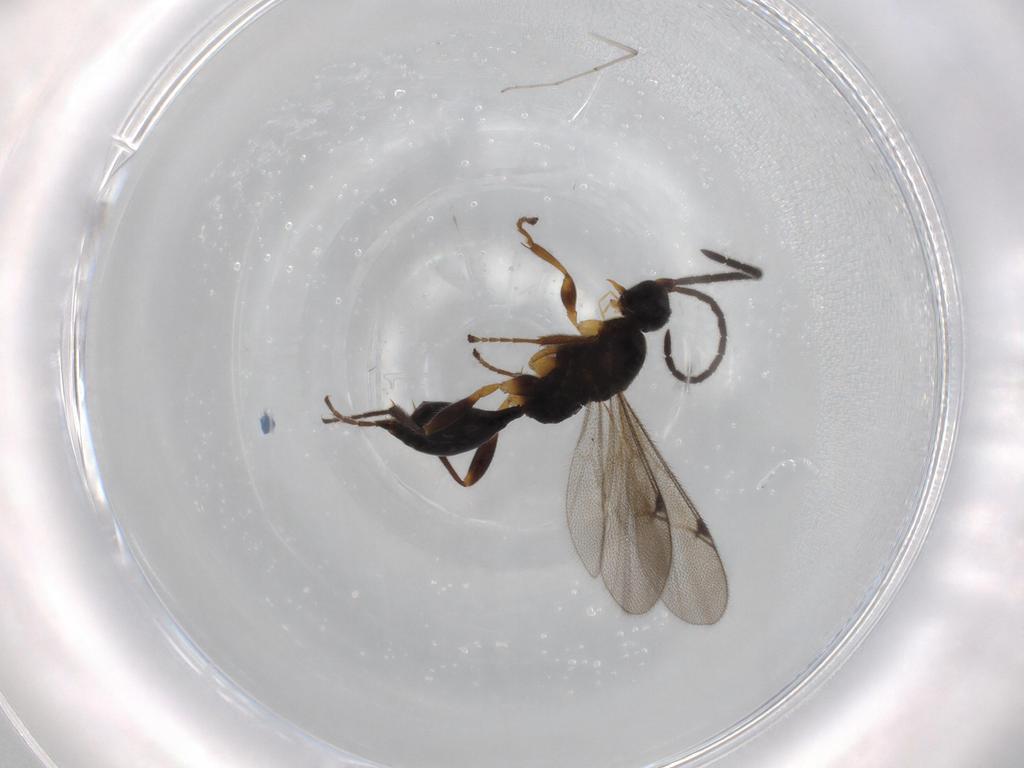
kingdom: Animalia
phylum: Arthropoda
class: Insecta
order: Hymenoptera
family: Proctotrupidae
